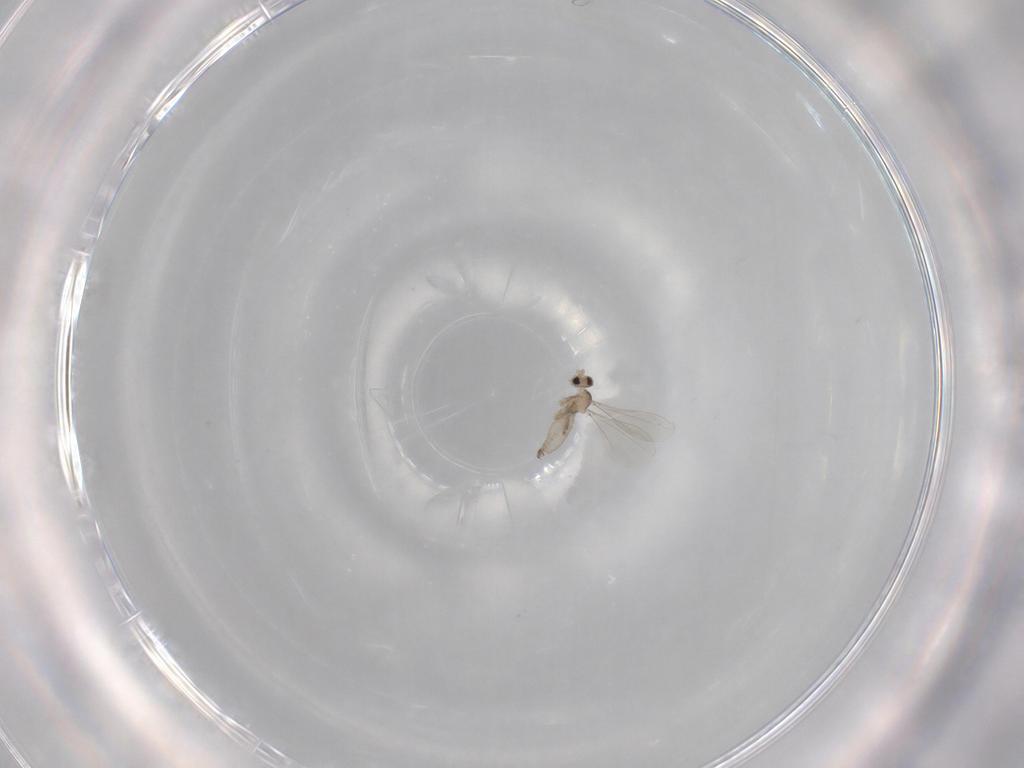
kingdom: Animalia
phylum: Arthropoda
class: Insecta
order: Diptera
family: Cecidomyiidae
